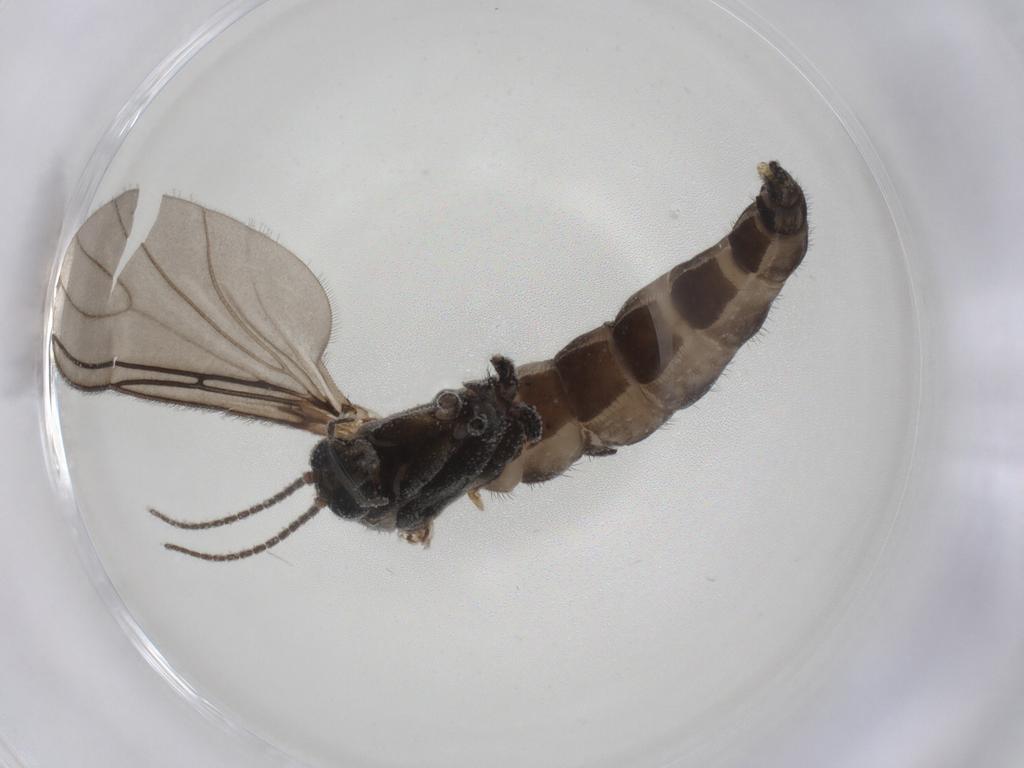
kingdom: Animalia
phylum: Arthropoda
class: Insecta
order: Diptera
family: Sciaridae
